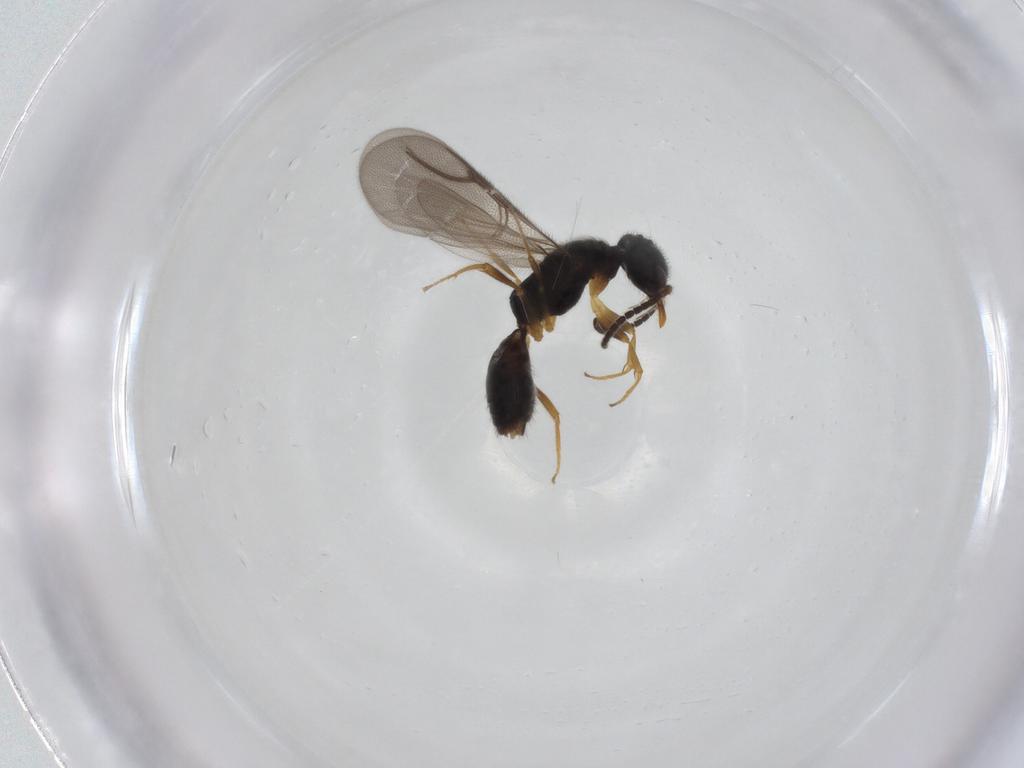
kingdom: Animalia
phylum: Arthropoda
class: Insecta
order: Hymenoptera
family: Bethylidae
